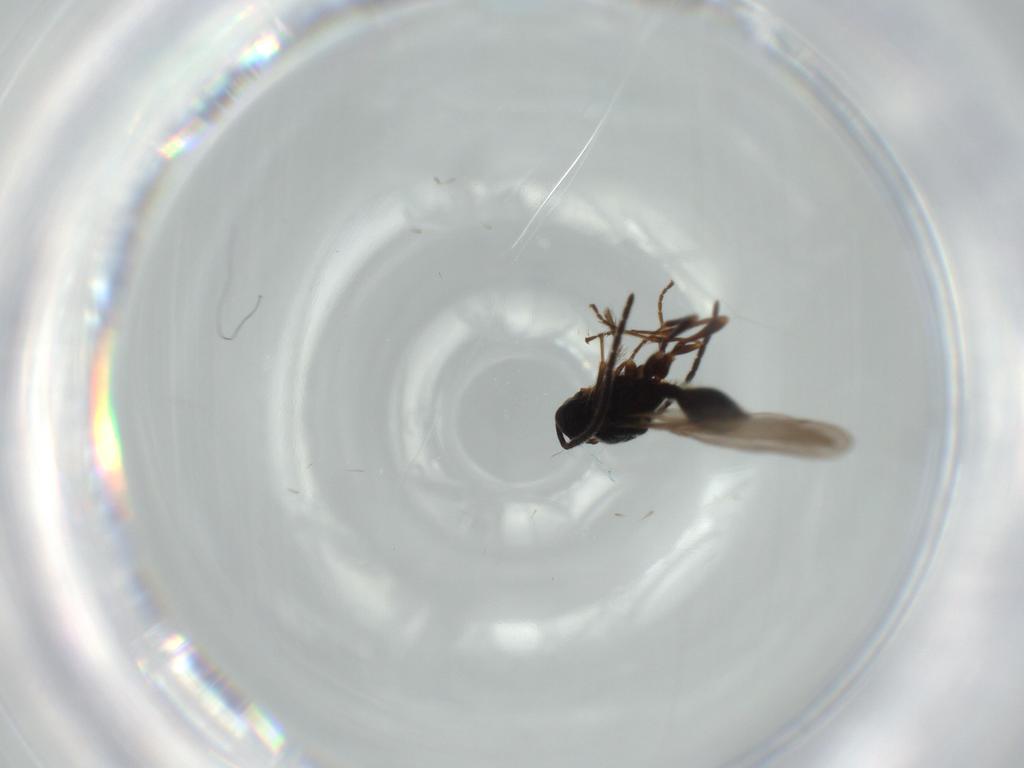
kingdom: Animalia
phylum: Arthropoda
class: Insecta
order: Hymenoptera
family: Diapriidae
